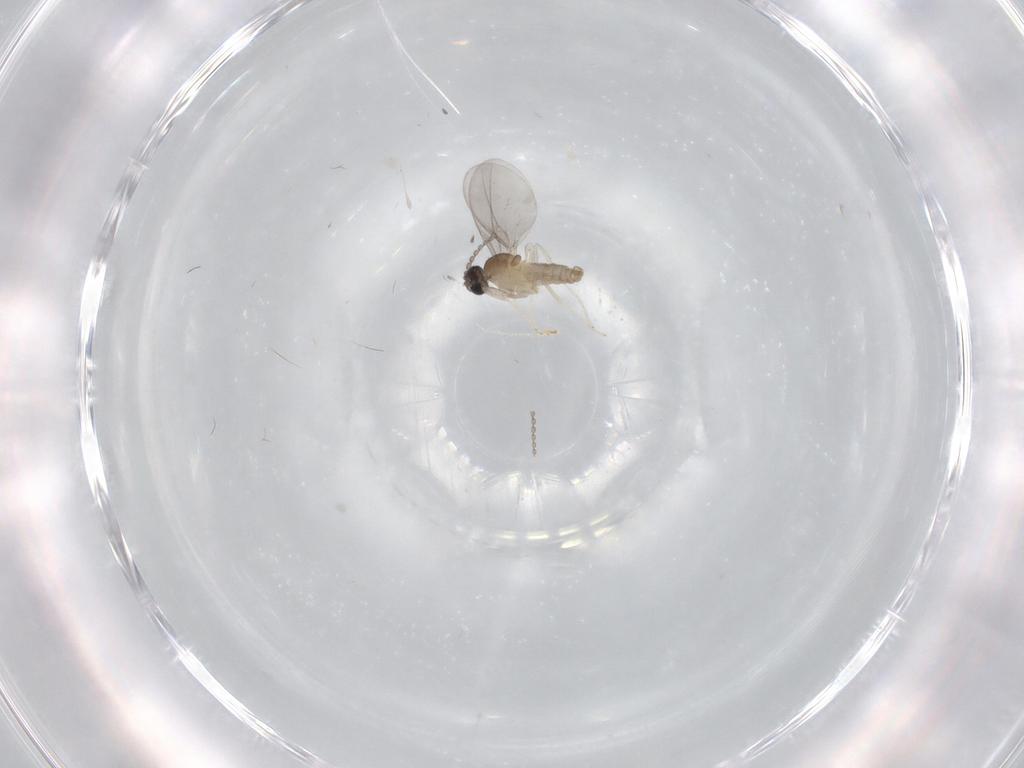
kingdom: Animalia
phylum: Arthropoda
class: Insecta
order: Diptera
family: Cecidomyiidae
